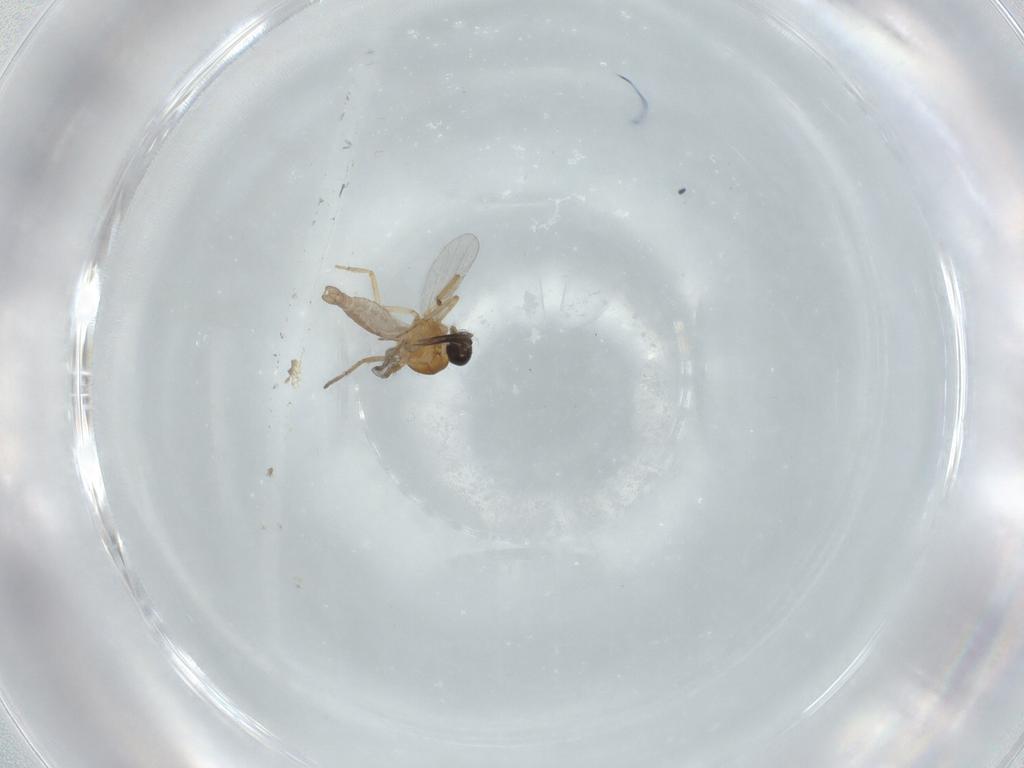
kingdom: Animalia
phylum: Arthropoda
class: Insecta
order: Diptera
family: Ceratopogonidae
